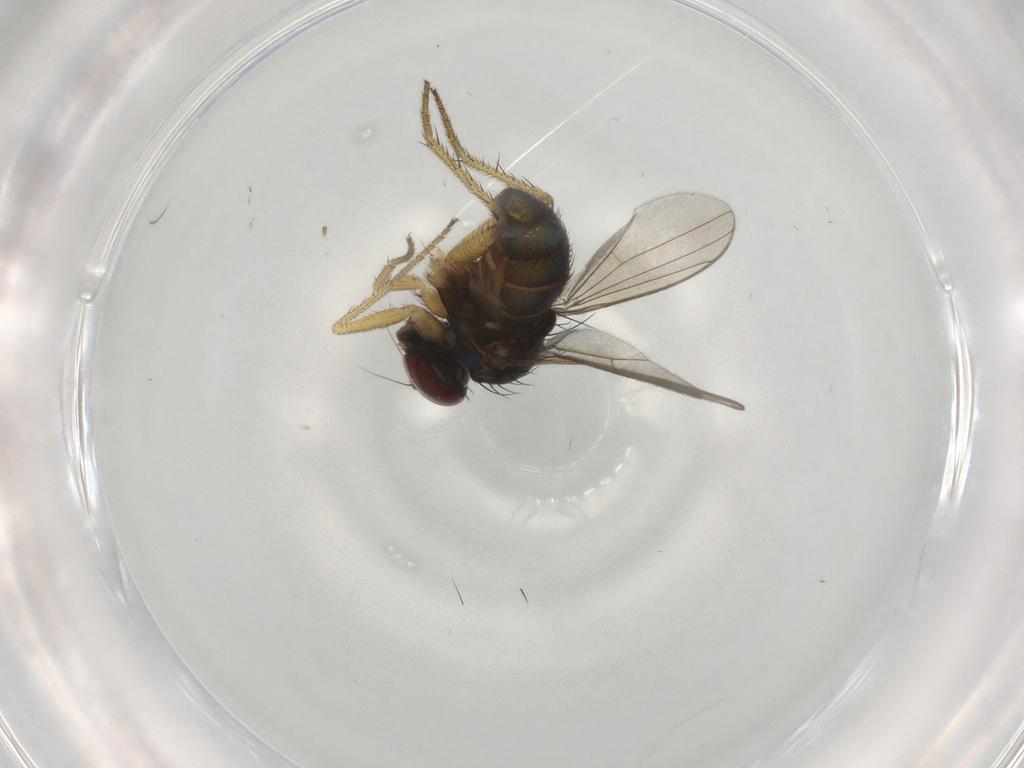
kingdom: Animalia
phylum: Arthropoda
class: Insecta
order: Diptera
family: Dolichopodidae
